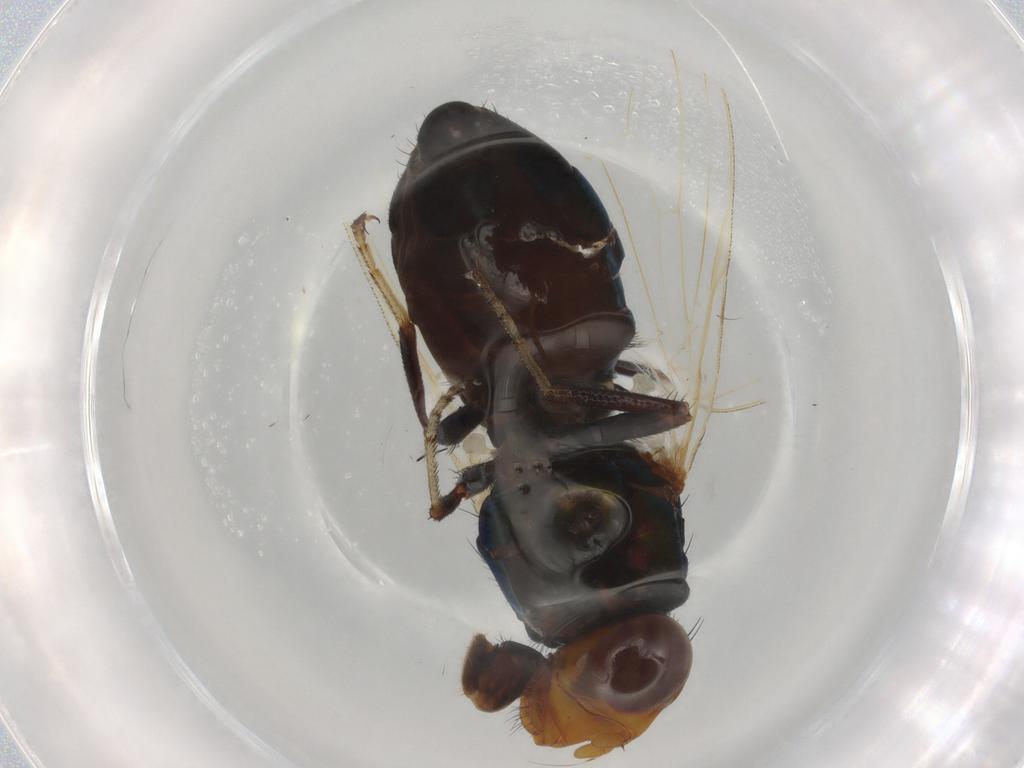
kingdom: Animalia
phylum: Arthropoda
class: Insecta
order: Diptera
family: Scatopsidae
